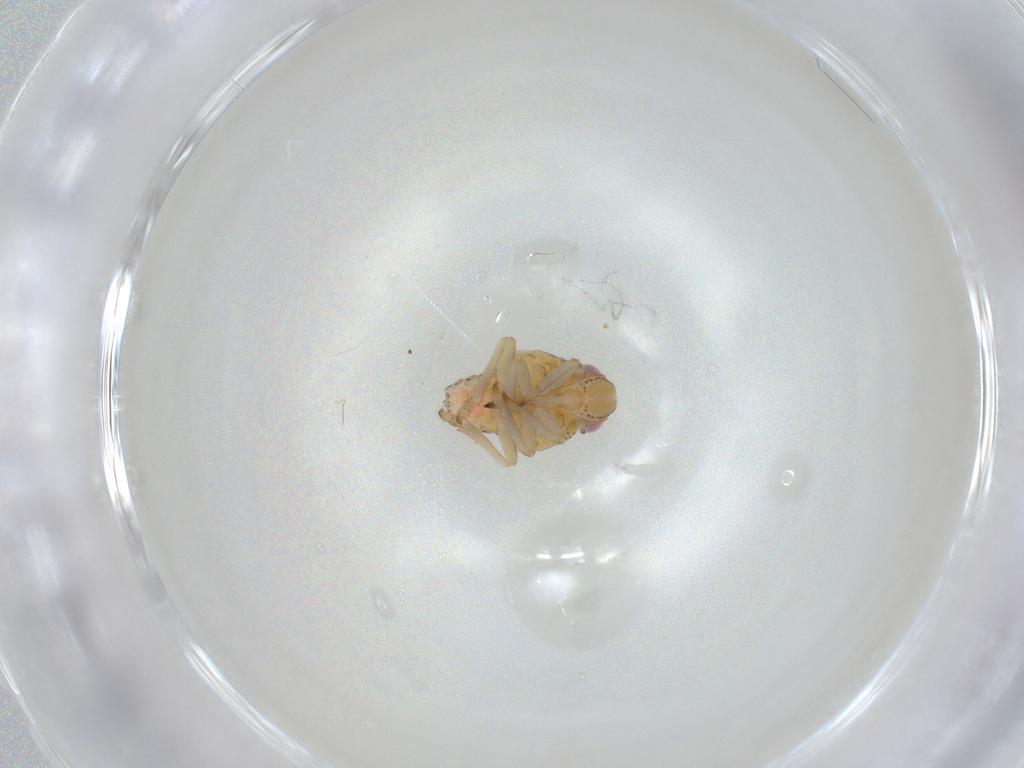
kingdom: Animalia
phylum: Arthropoda
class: Insecta
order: Hemiptera
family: Tropiduchidae
